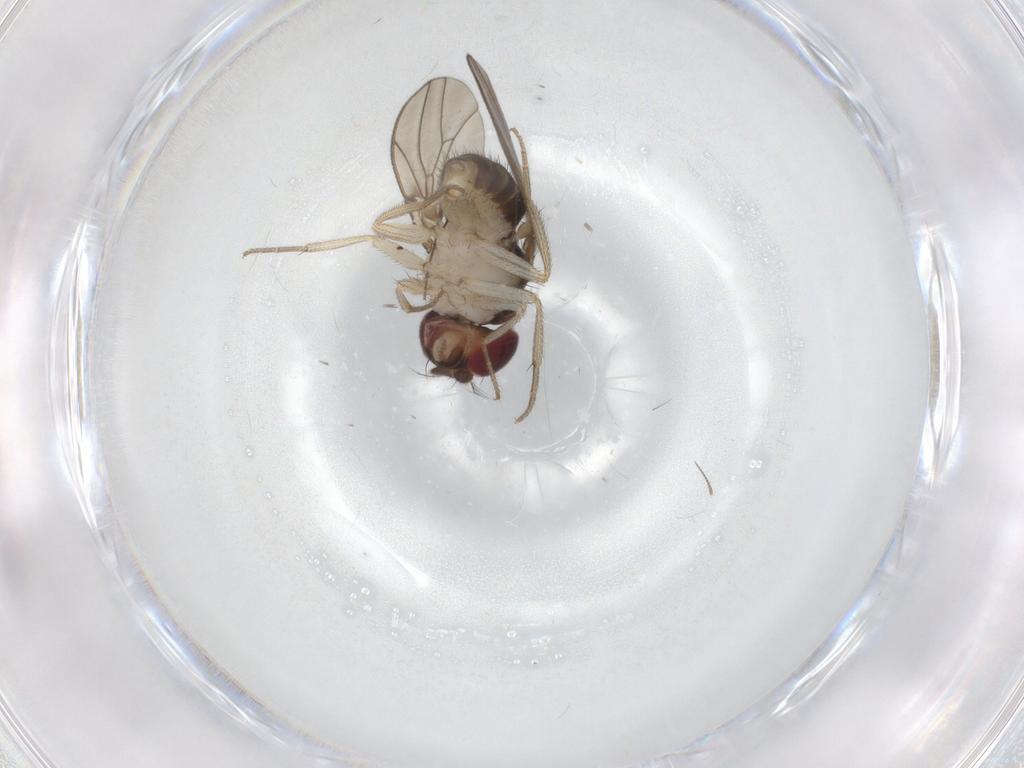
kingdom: Animalia
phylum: Arthropoda
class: Insecta
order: Diptera
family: Drosophilidae
